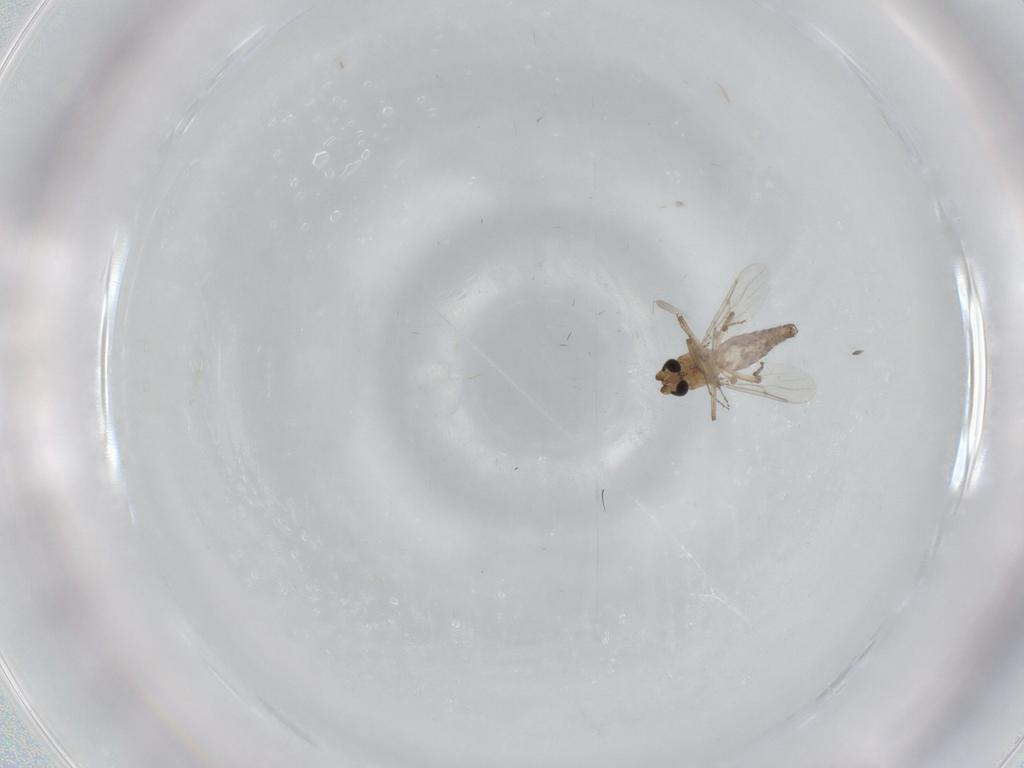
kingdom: Animalia
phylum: Arthropoda
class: Insecta
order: Diptera
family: Ceratopogonidae
